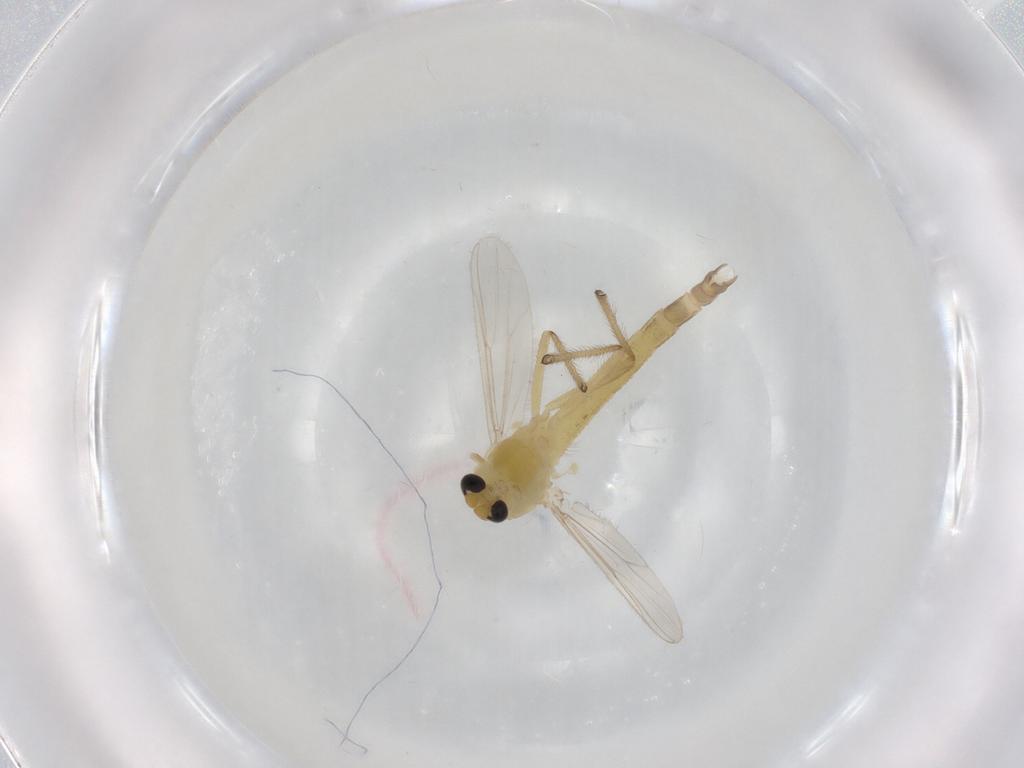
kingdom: Animalia
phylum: Arthropoda
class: Insecta
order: Diptera
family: Chironomidae
